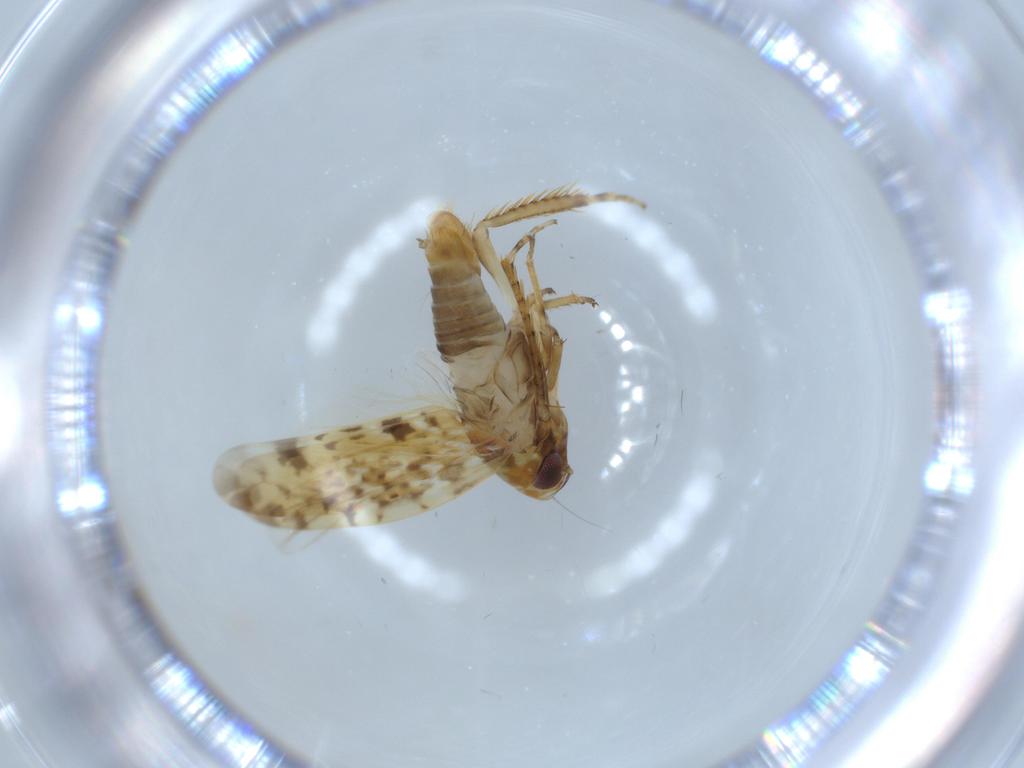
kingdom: Animalia
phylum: Arthropoda
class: Insecta
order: Hemiptera
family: Cicadellidae
